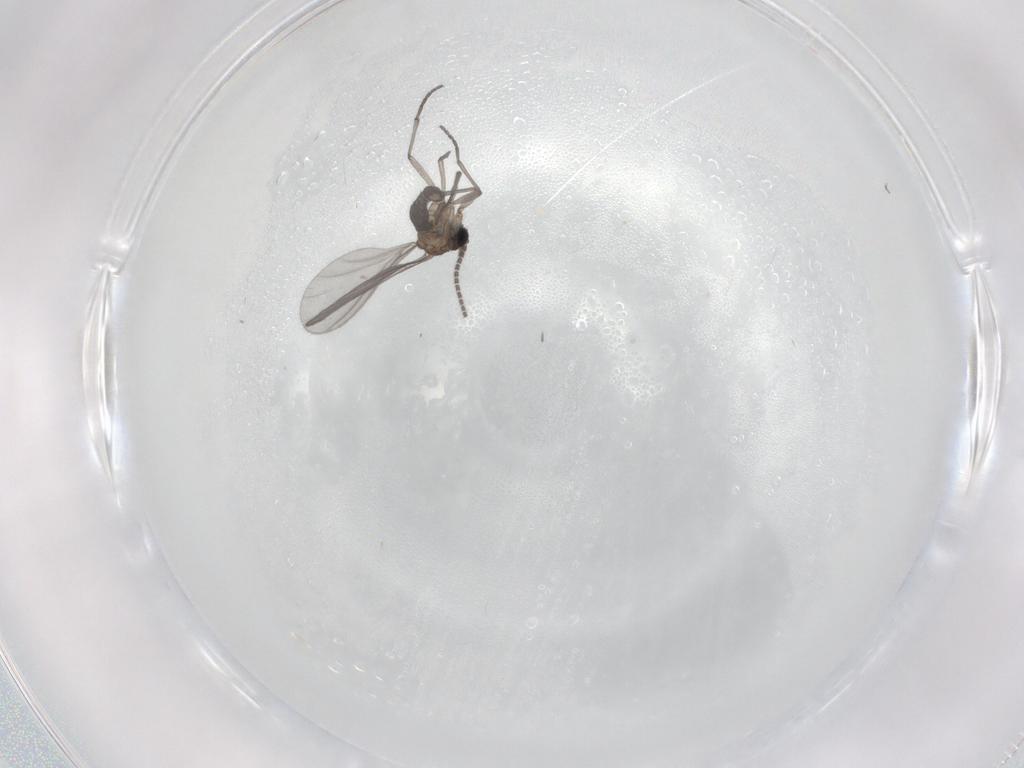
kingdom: Animalia
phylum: Arthropoda
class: Insecta
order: Diptera
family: Sciaridae
